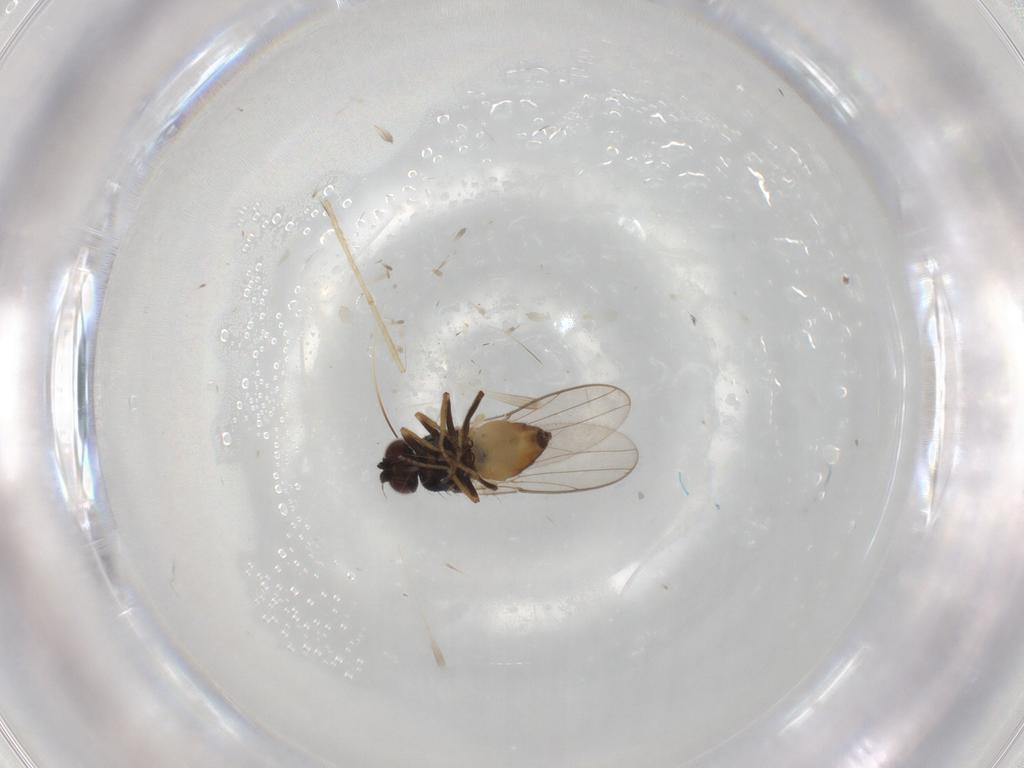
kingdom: Animalia
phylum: Arthropoda
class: Insecta
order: Diptera
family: Chloropidae
